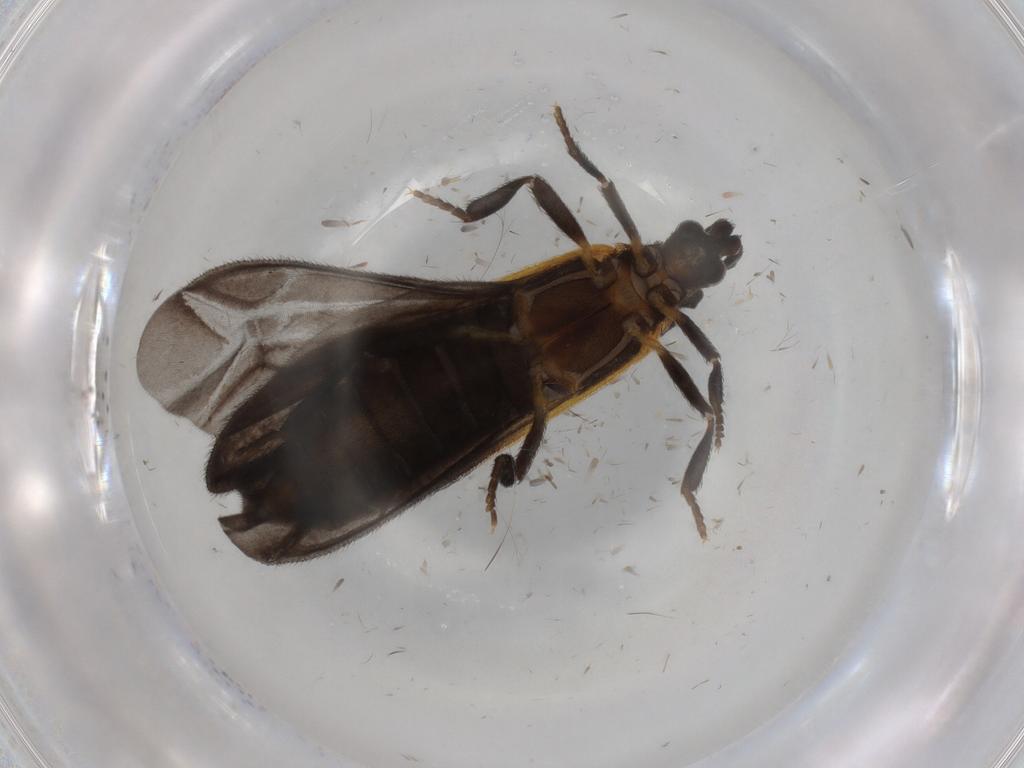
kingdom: Animalia
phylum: Arthropoda
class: Insecta
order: Coleoptera
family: Lycidae
